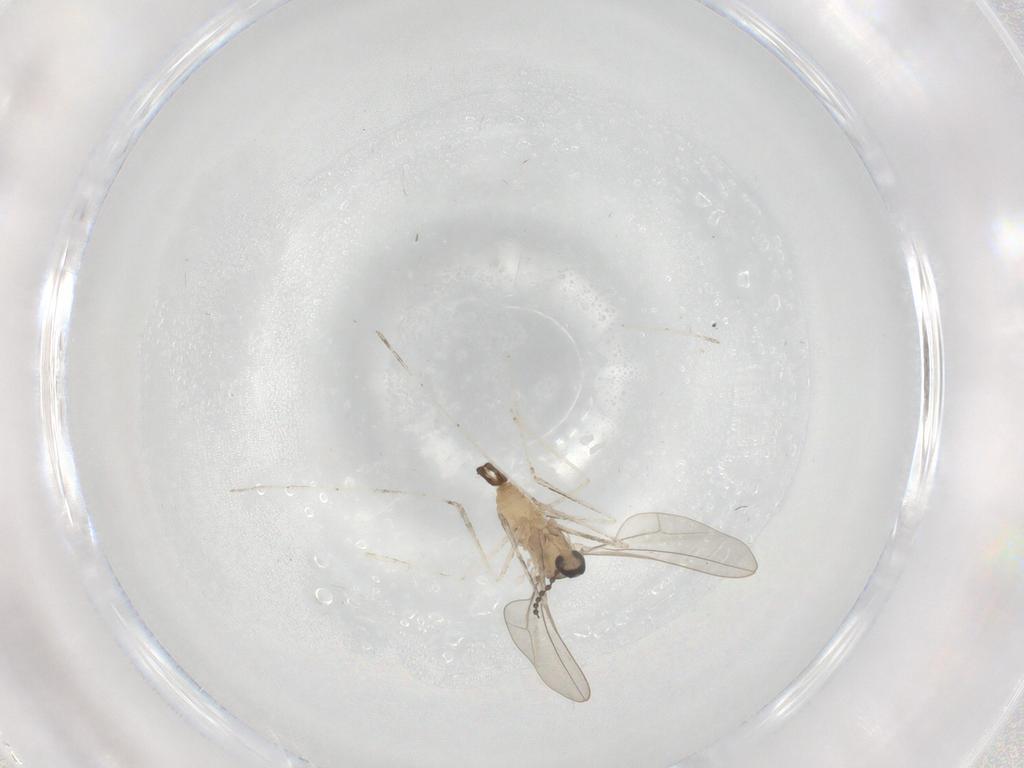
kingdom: Animalia
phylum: Arthropoda
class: Insecta
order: Diptera
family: Cecidomyiidae
